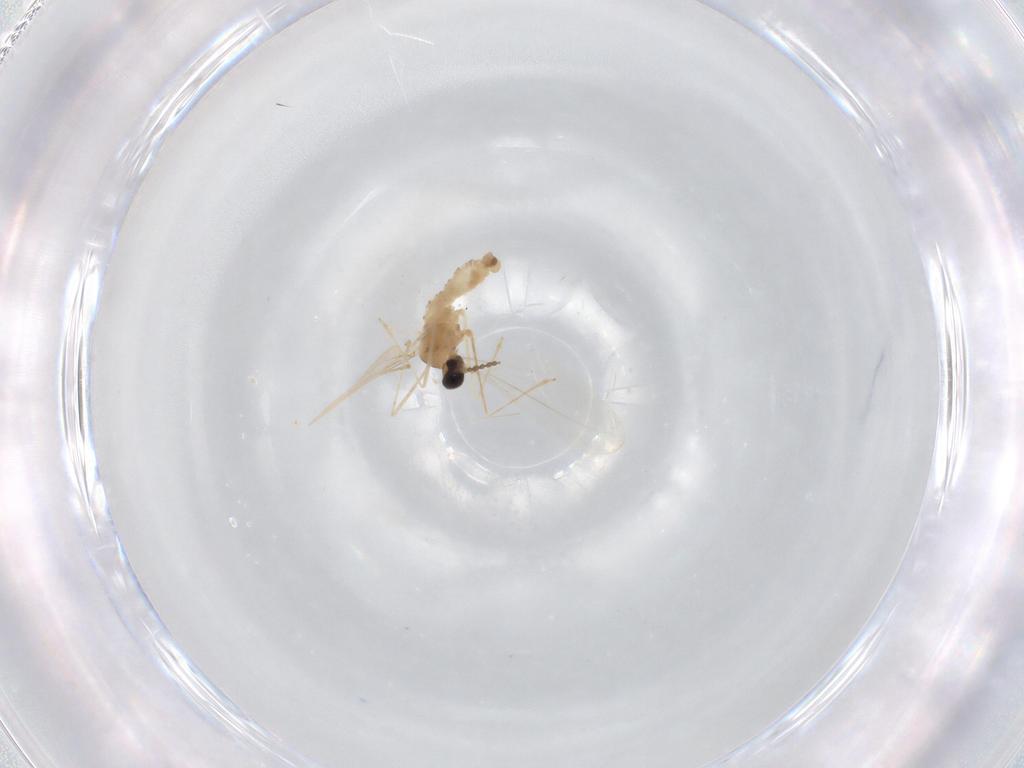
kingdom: Animalia
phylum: Arthropoda
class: Insecta
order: Diptera
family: Cecidomyiidae
